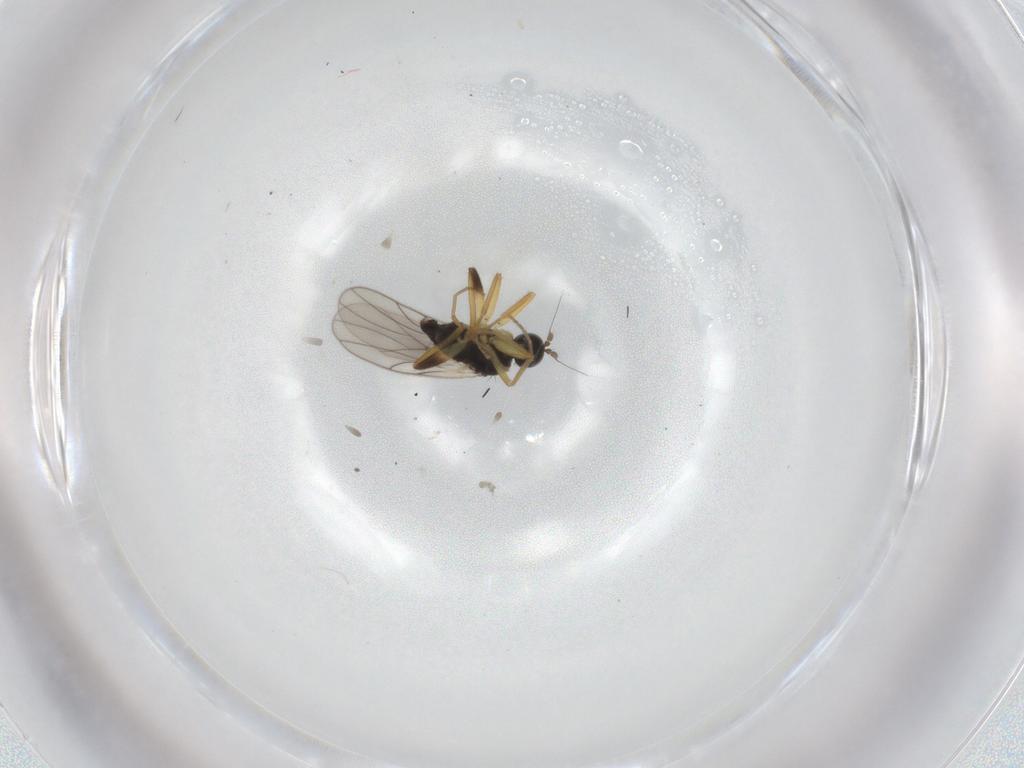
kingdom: Animalia
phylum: Arthropoda
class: Insecta
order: Diptera
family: Hybotidae
